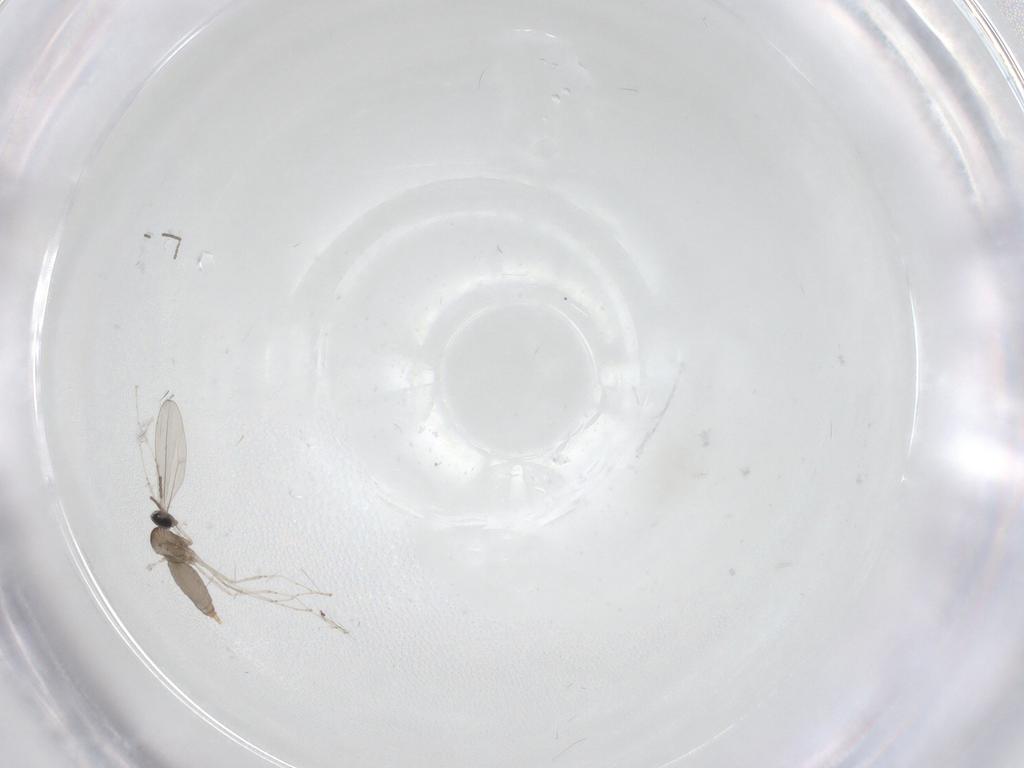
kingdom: Animalia
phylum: Arthropoda
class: Insecta
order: Diptera
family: Cecidomyiidae
